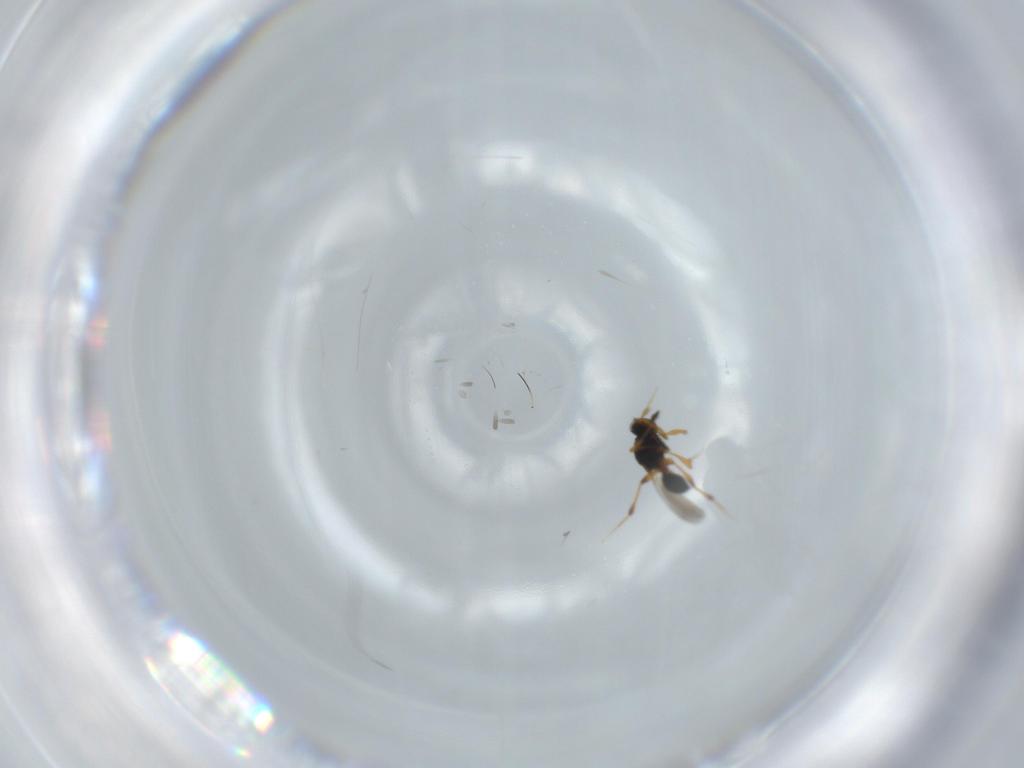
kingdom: Animalia
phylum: Arthropoda
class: Insecta
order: Hymenoptera
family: Platygastridae
